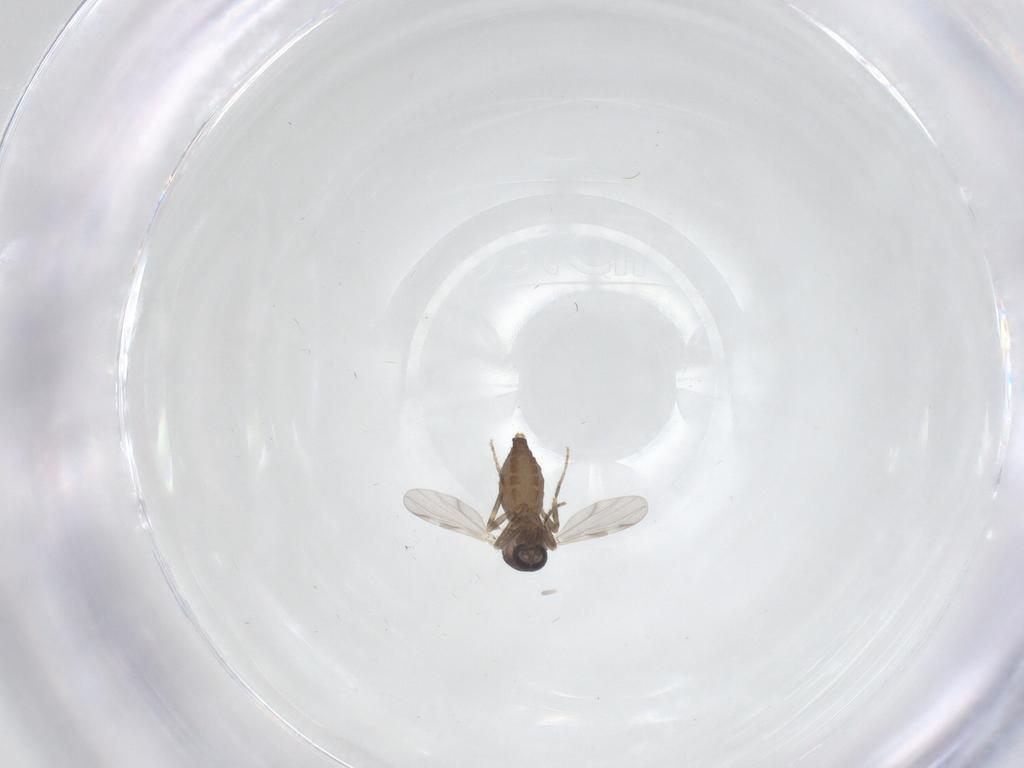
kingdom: Animalia
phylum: Arthropoda
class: Insecta
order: Diptera
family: Ceratopogonidae
